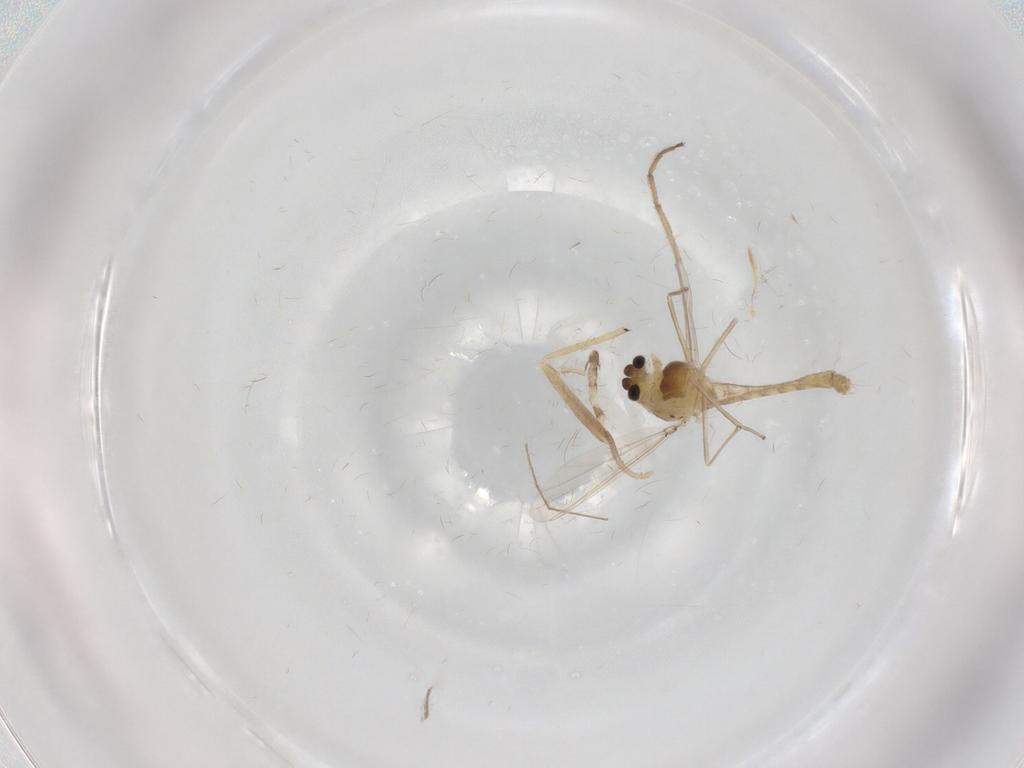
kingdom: Animalia
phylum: Arthropoda
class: Insecta
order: Diptera
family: Chironomidae
